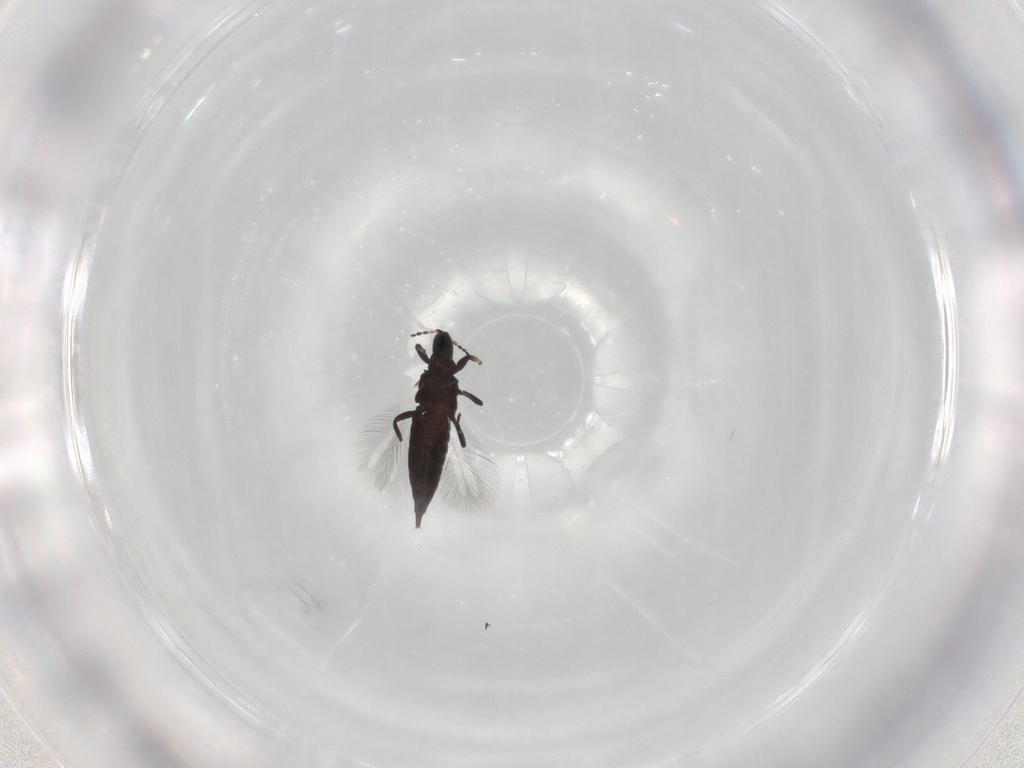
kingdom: Animalia
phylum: Arthropoda
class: Insecta
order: Thysanoptera
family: Phlaeothripidae
